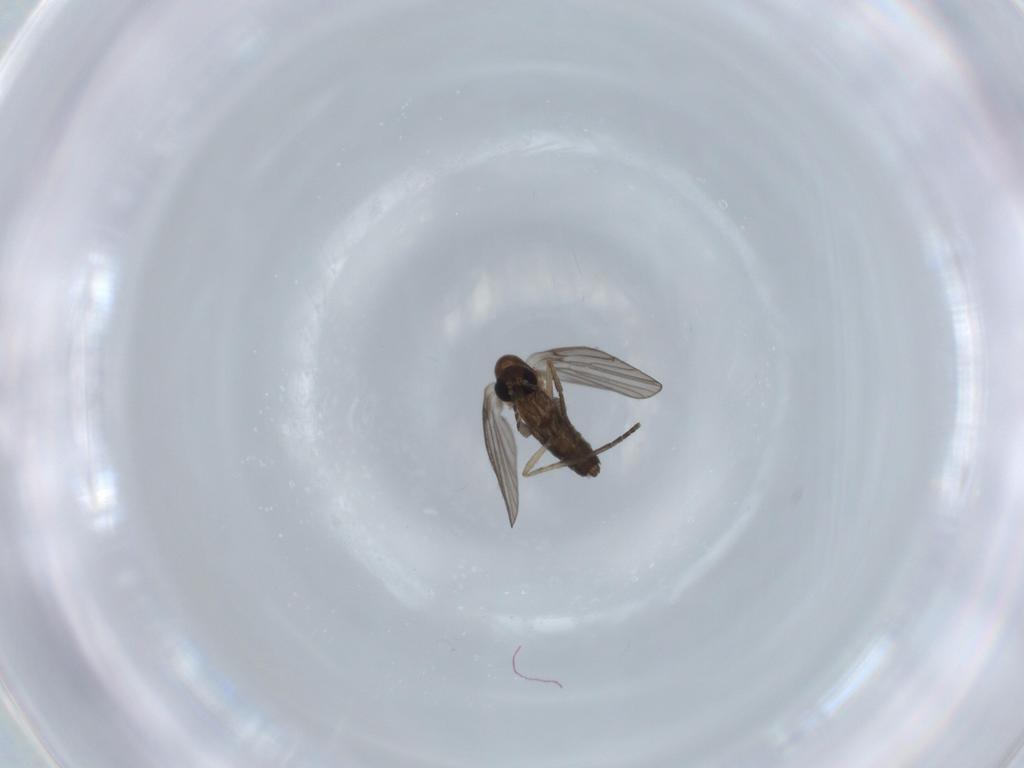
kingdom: Animalia
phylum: Arthropoda
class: Insecta
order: Diptera
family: Psychodidae
